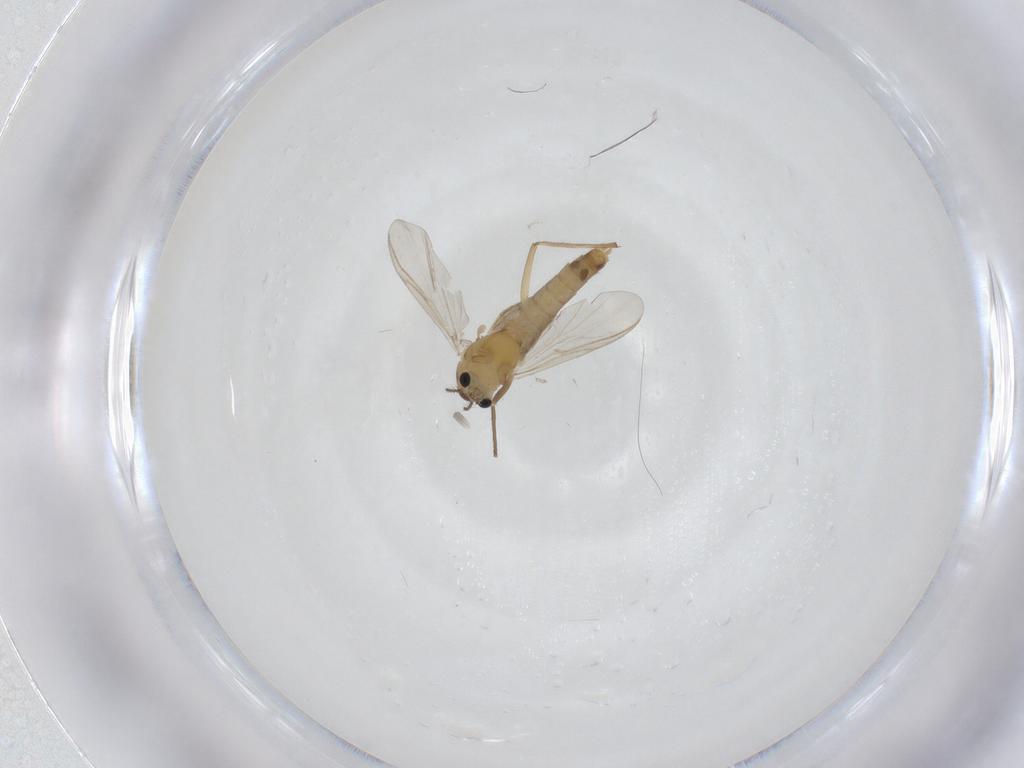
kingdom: Animalia
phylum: Arthropoda
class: Insecta
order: Diptera
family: Chironomidae
